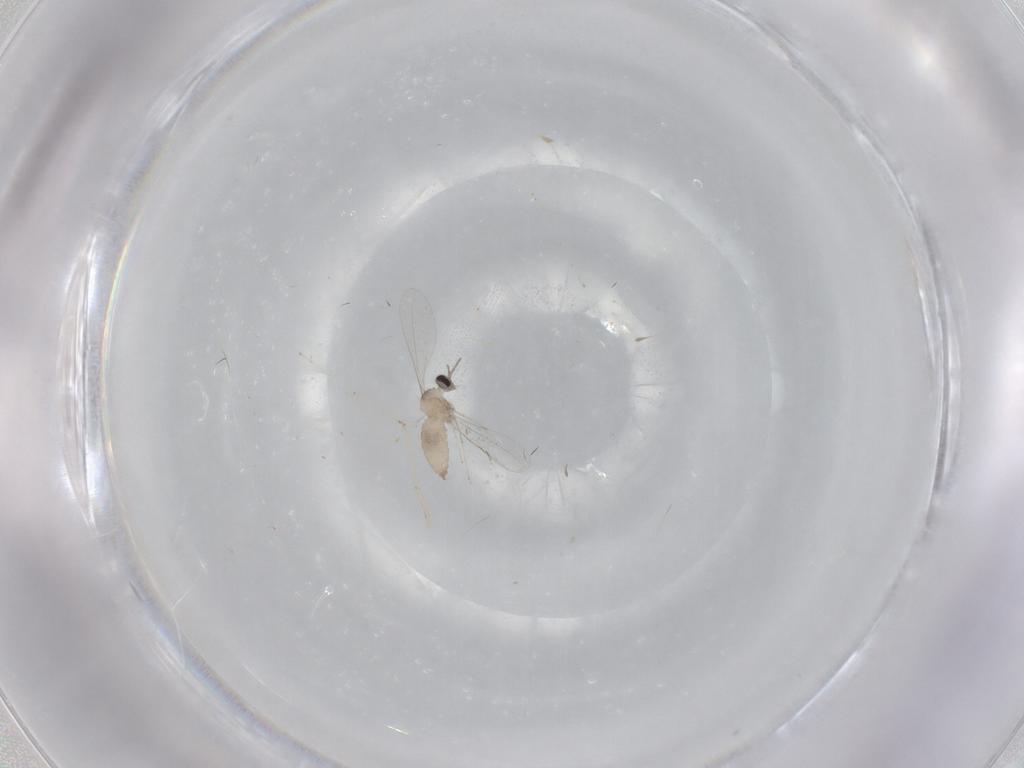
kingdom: Animalia
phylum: Arthropoda
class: Insecta
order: Diptera
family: Cecidomyiidae
